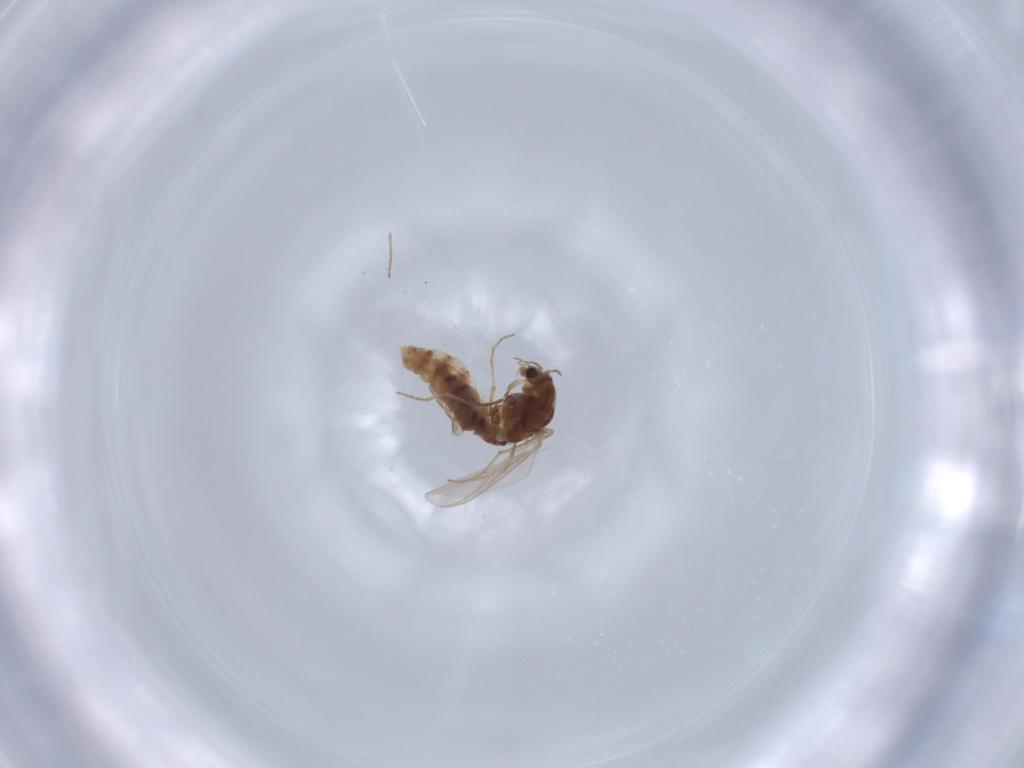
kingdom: Animalia
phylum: Arthropoda
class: Insecta
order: Diptera
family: Chironomidae
